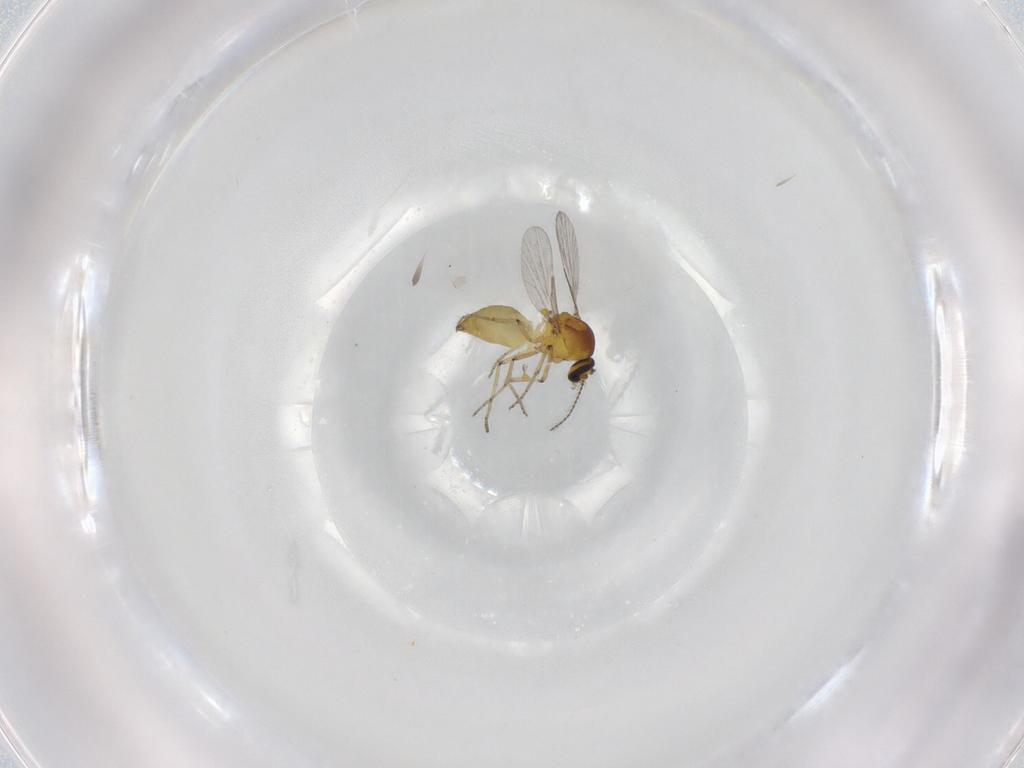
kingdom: Animalia
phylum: Arthropoda
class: Insecta
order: Diptera
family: Ceratopogonidae
